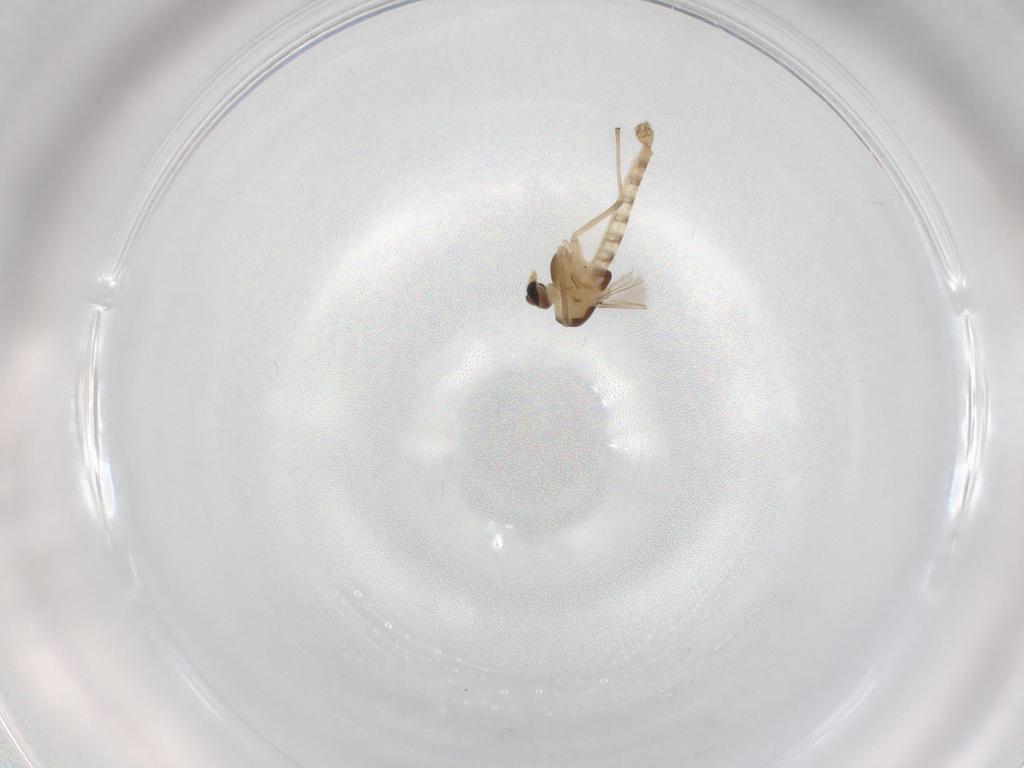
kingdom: Animalia
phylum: Arthropoda
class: Insecta
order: Diptera
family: Chironomidae
